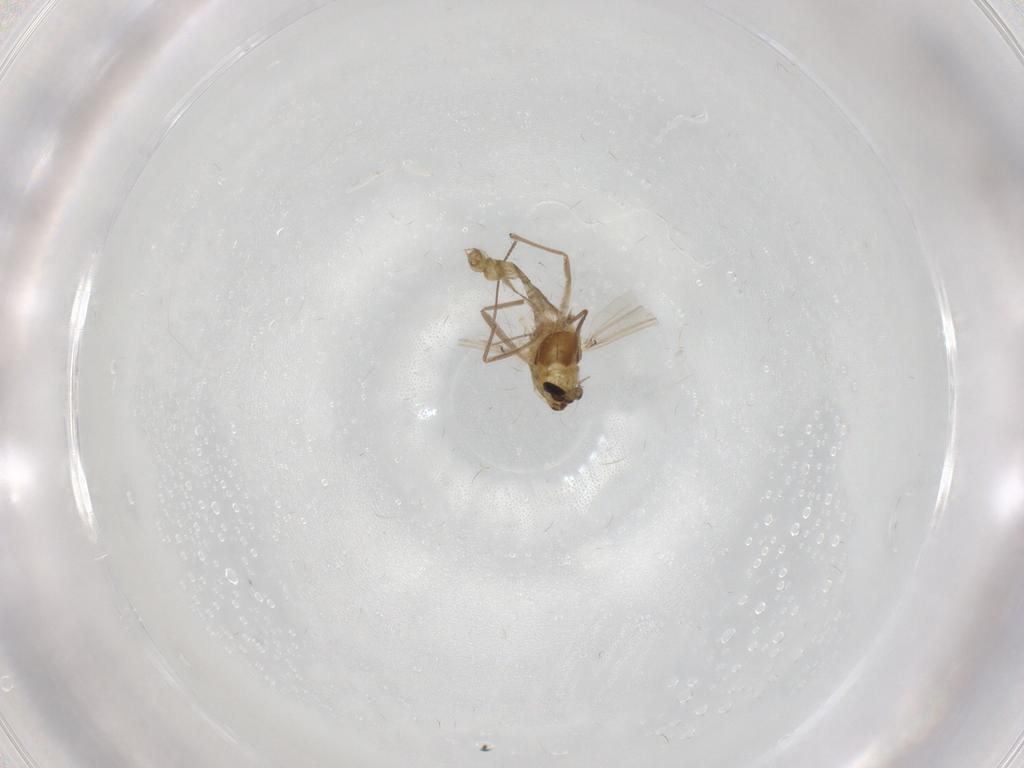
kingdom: Animalia
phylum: Arthropoda
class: Insecta
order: Diptera
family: Chironomidae
